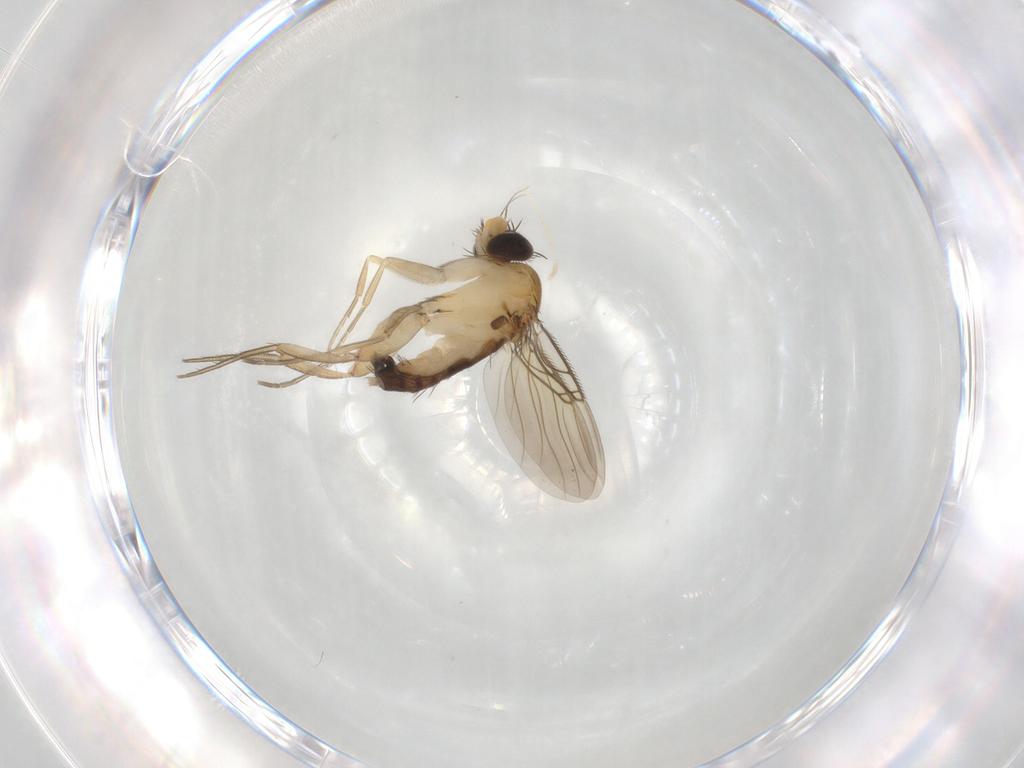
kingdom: Animalia
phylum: Arthropoda
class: Insecta
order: Diptera
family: Phoridae
